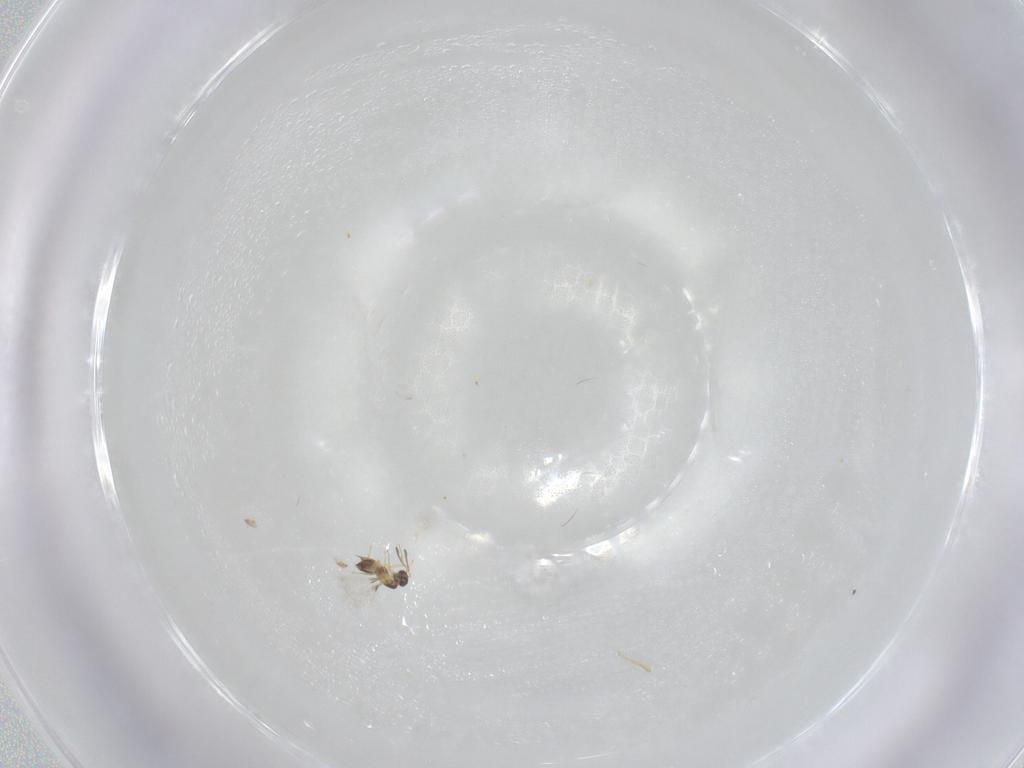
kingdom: Animalia
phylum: Arthropoda
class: Insecta
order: Hymenoptera
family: Mymaridae
